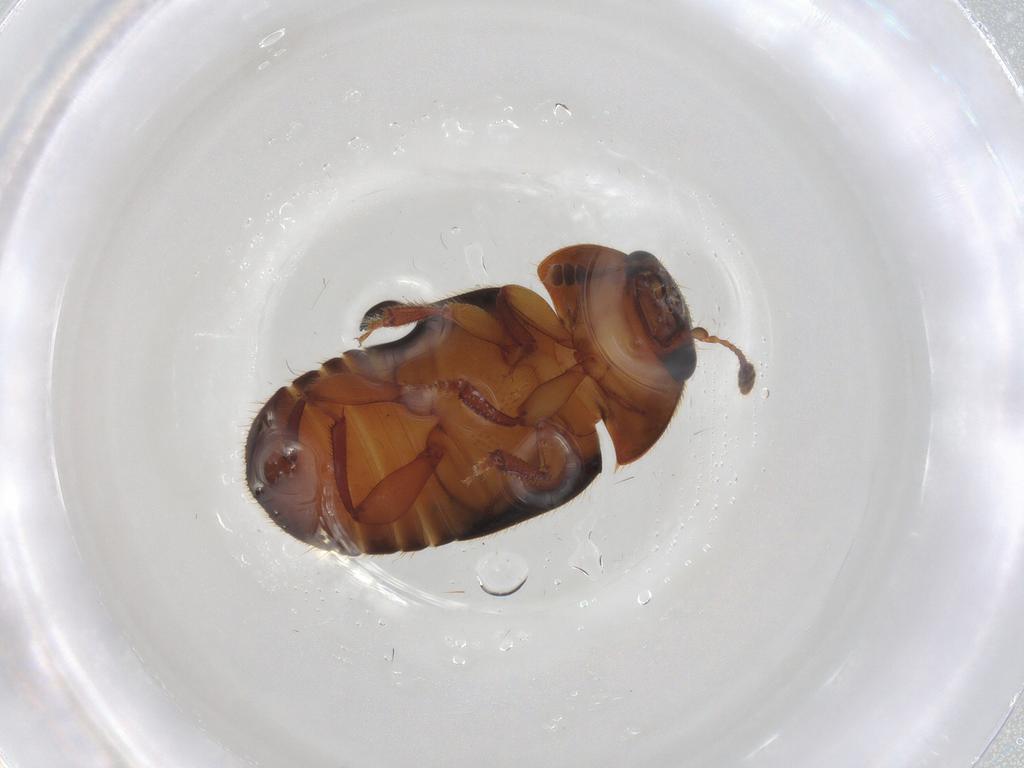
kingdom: Animalia
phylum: Arthropoda
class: Insecta
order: Coleoptera
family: Nitidulidae
